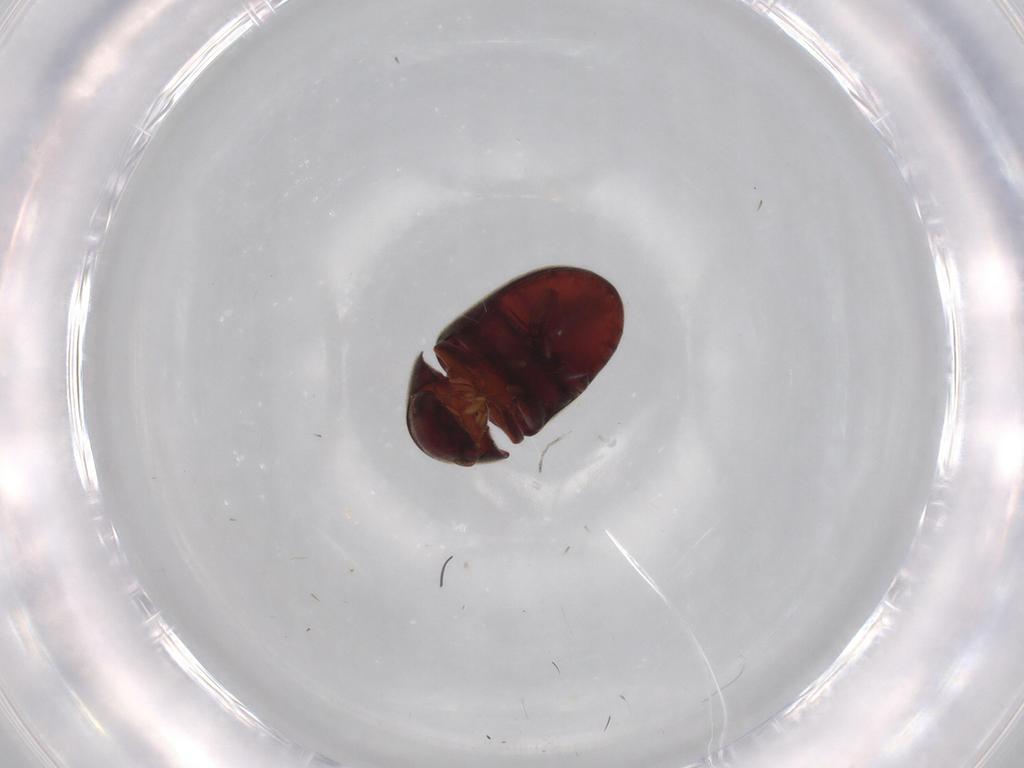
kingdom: Animalia
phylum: Arthropoda
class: Insecta
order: Coleoptera
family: Ptinidae
